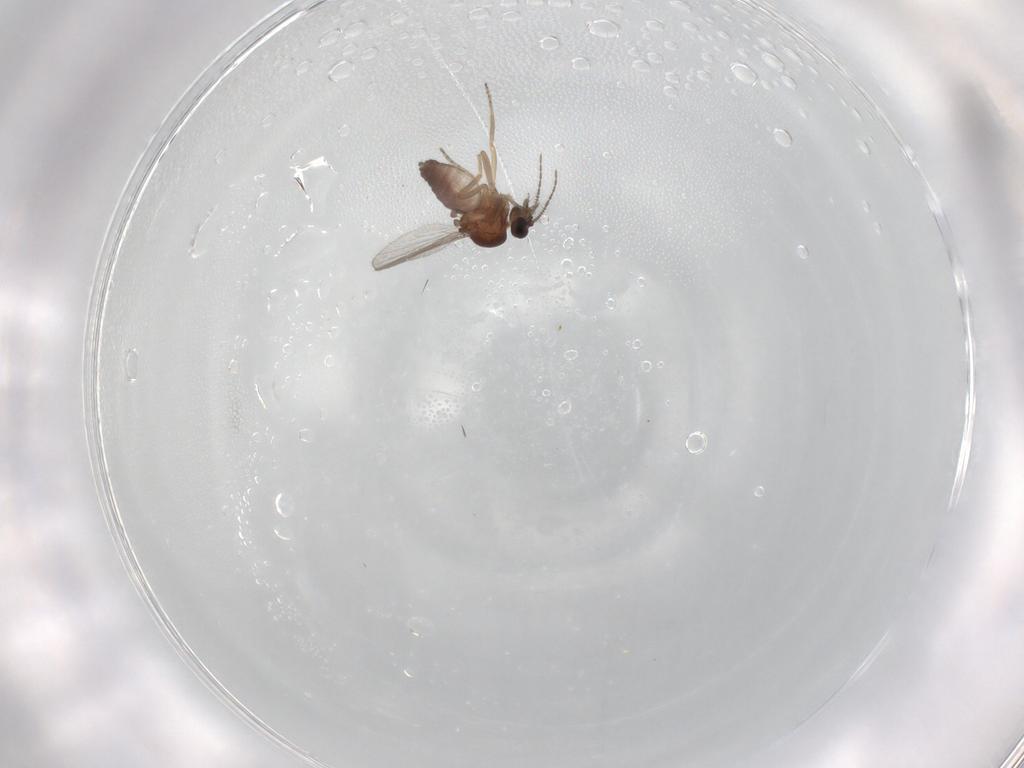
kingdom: Animalia
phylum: Arthropoda
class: Insecta
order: Diptera
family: Ceratopogonidae
